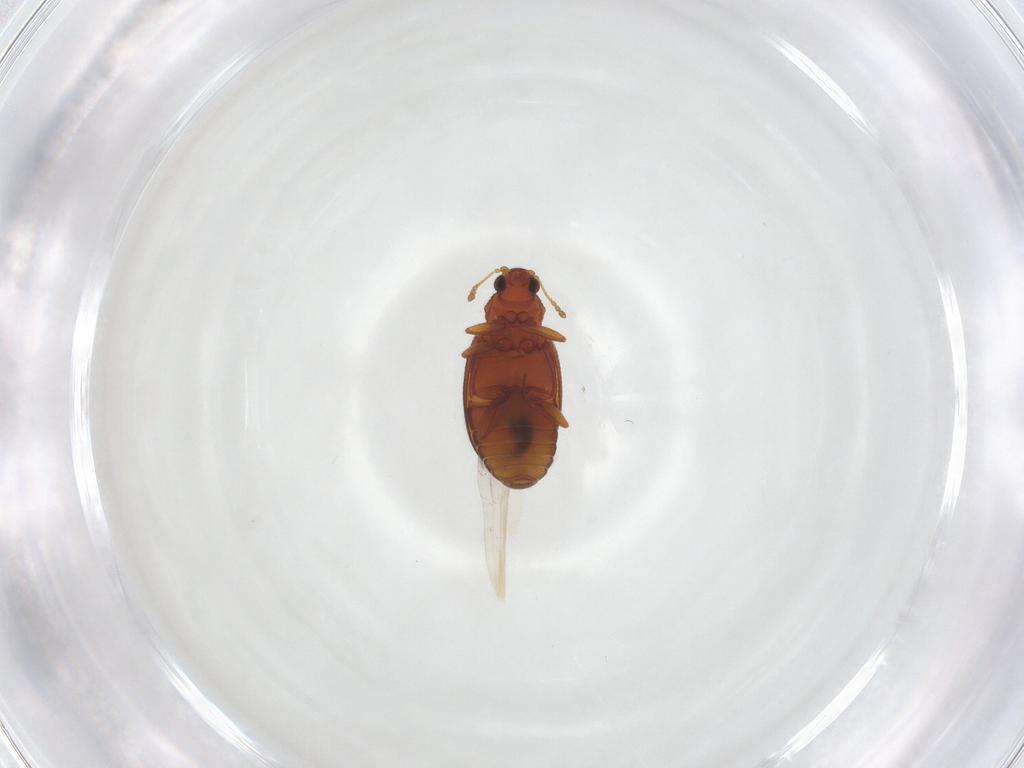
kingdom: Animalia
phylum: Arthropoda
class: Insecta
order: Coleoptera
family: Latridiidae
